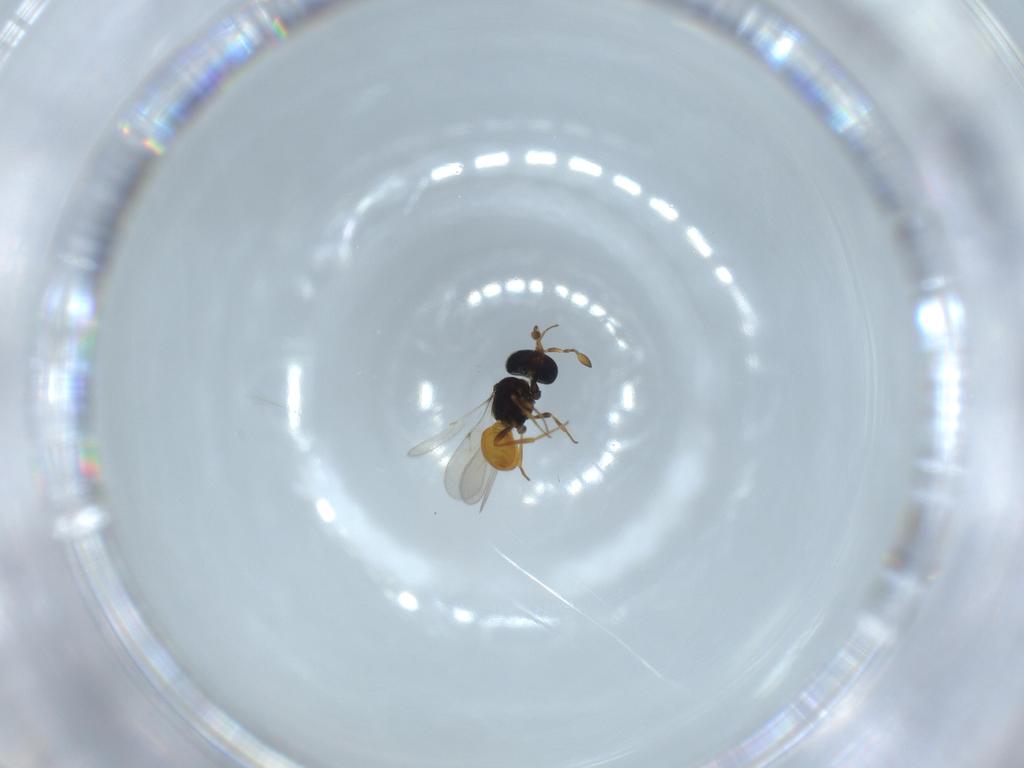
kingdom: Animalia
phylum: Arthropoda
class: Insecta
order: Hymenoptera
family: Scelionidae
